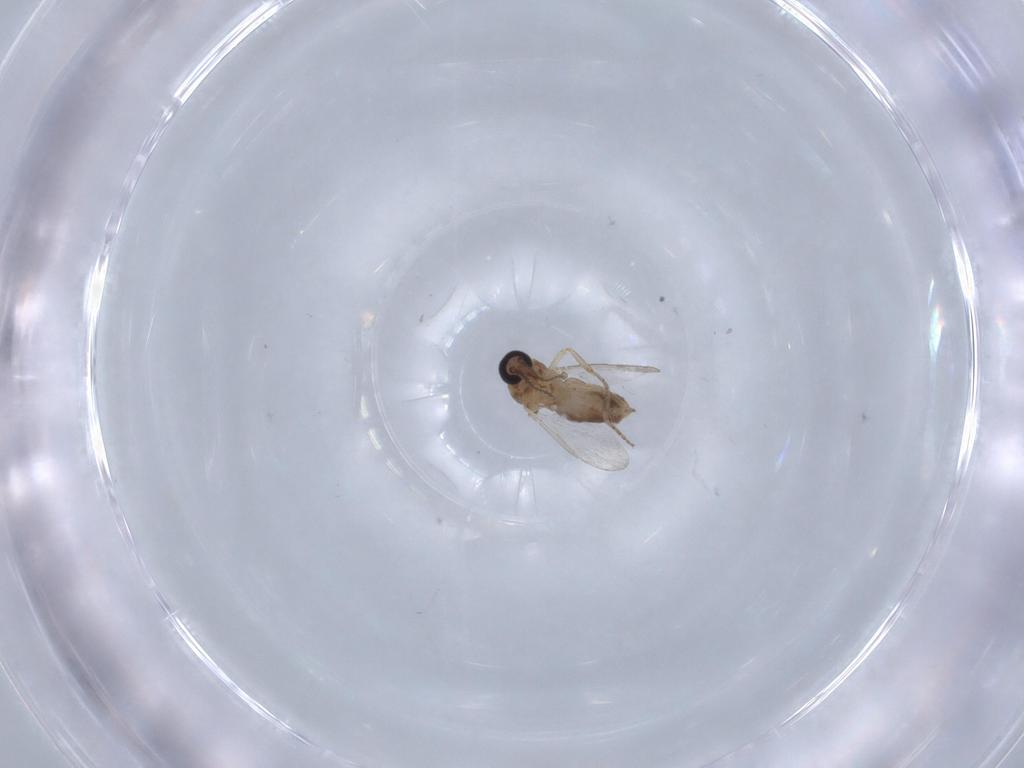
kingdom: Animalia
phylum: Arthropoda
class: Insecta
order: Diptera
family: Ceratopogonidae
